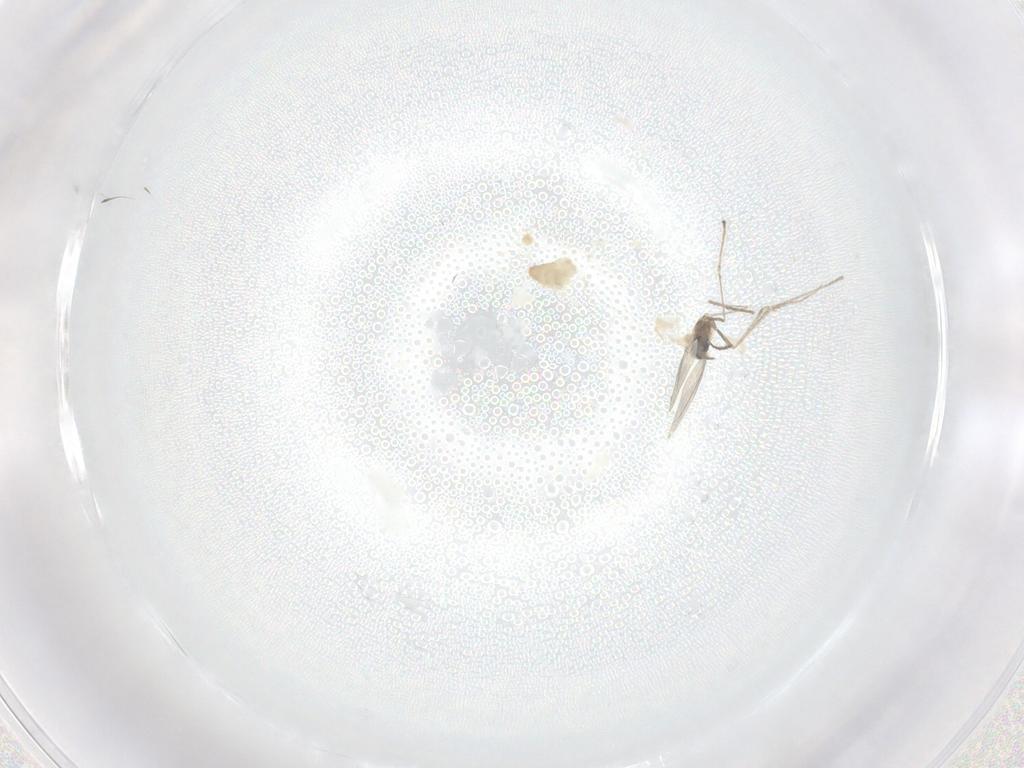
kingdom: Animalia
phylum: Arthropoda
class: Insecta
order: Diptera
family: Cecidomyiidae
